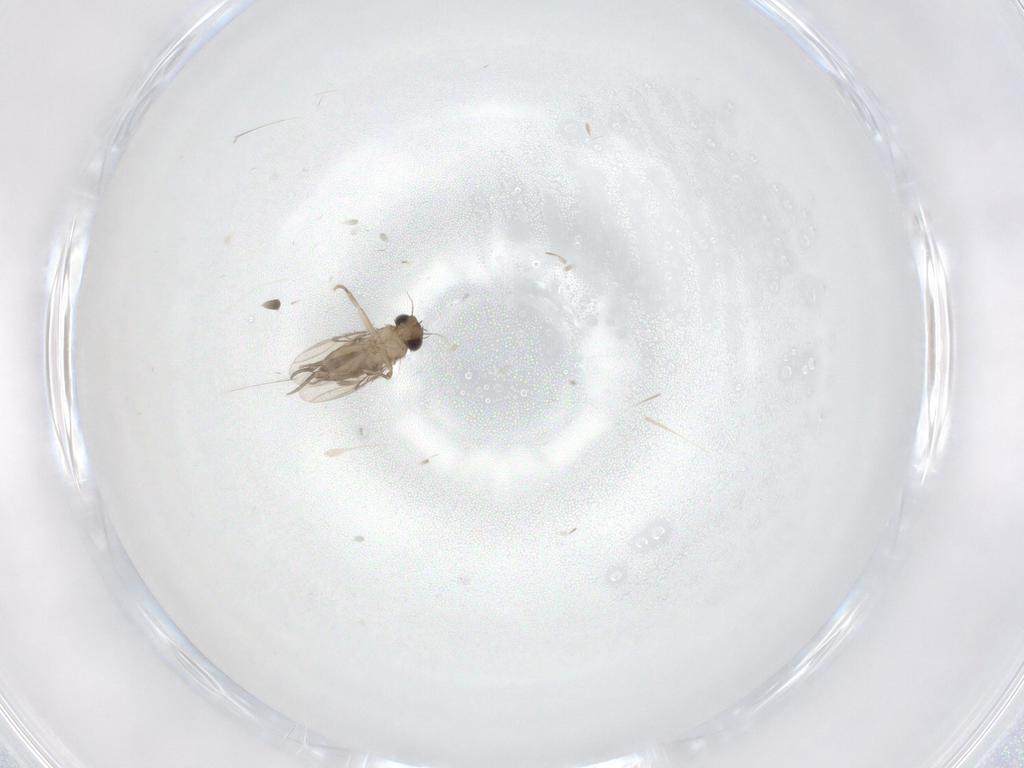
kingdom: Animalia
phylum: Arthropoda
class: Insecta
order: Diptera
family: Phoridae
